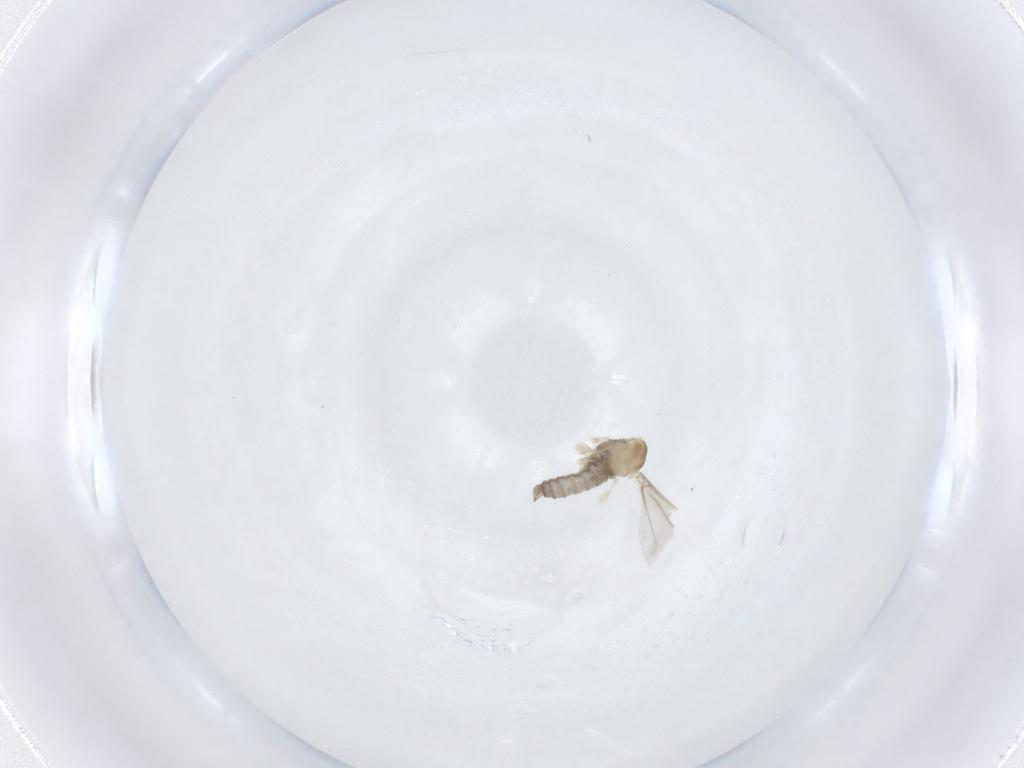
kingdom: Animalia
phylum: Arthropoda
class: Insecta
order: Diptera
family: Cecidomyiidae
